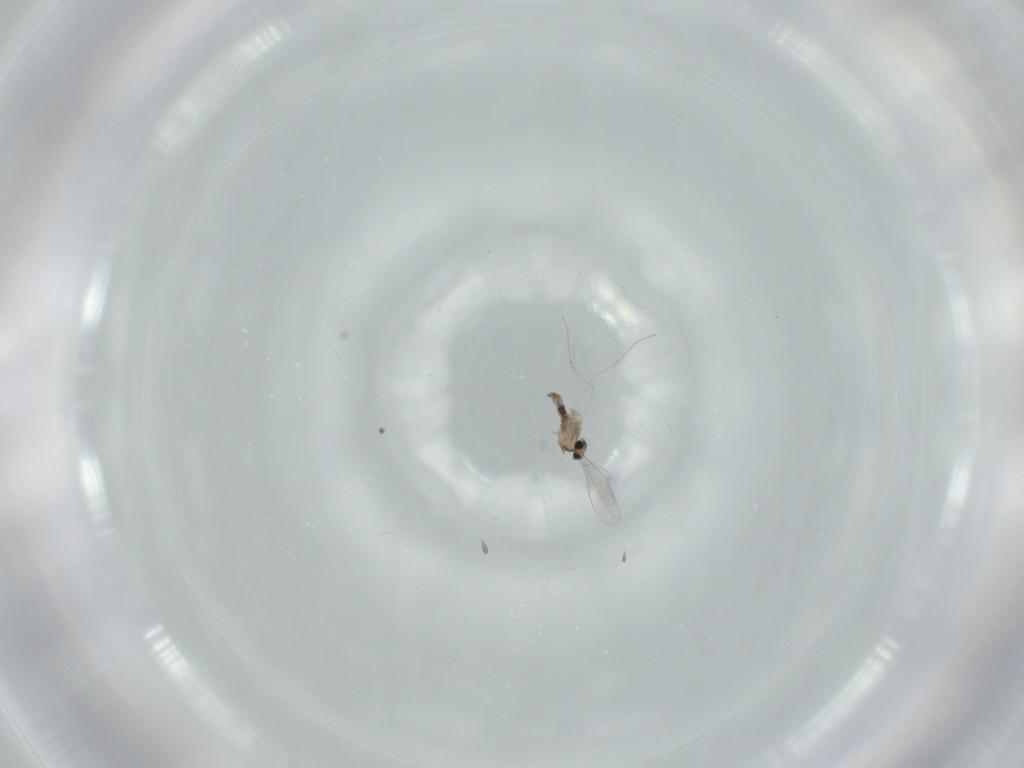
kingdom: Animalia
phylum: Arthropoda
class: Insecta
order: Diptera
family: Cecidomyiidae
